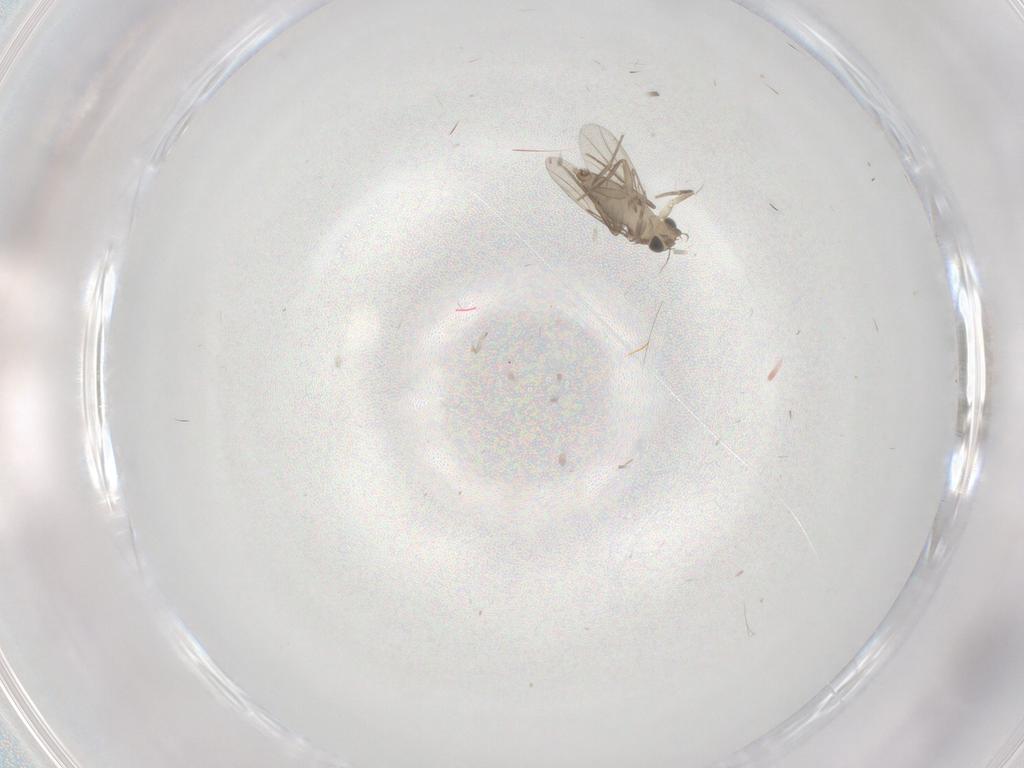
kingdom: Animalia
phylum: Arthropoda
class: Insecta
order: Diptera
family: Phoridae
